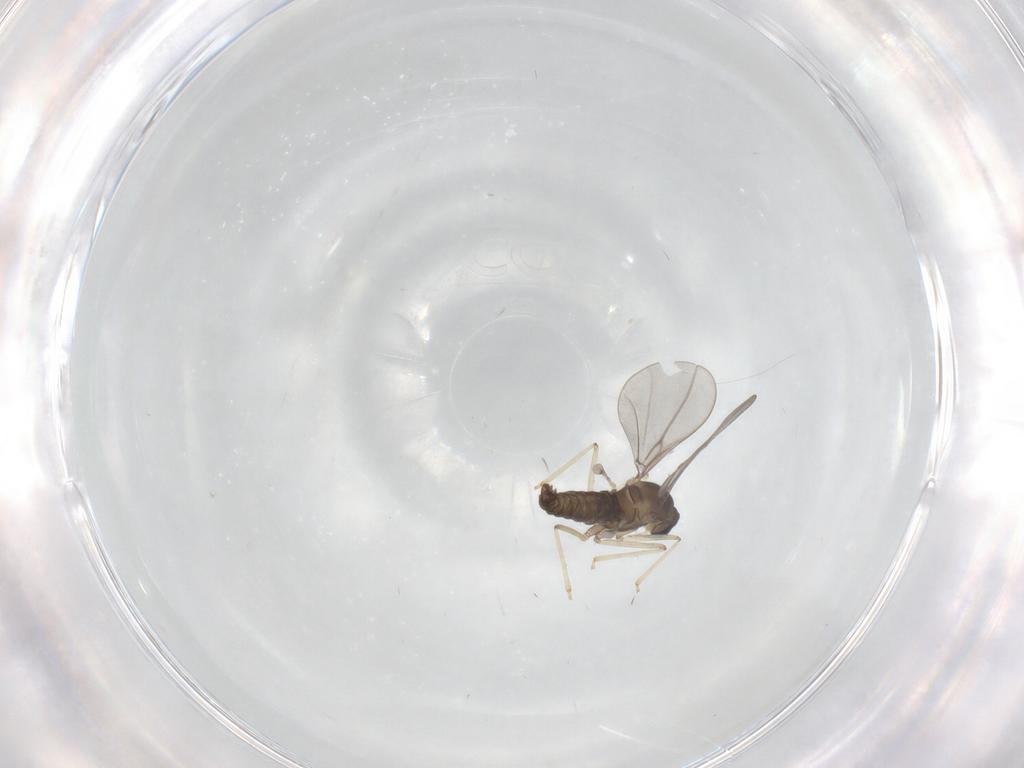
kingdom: Animalia
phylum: Arthropoda
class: Insecta
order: Diptera
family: Cecidomyiidae
